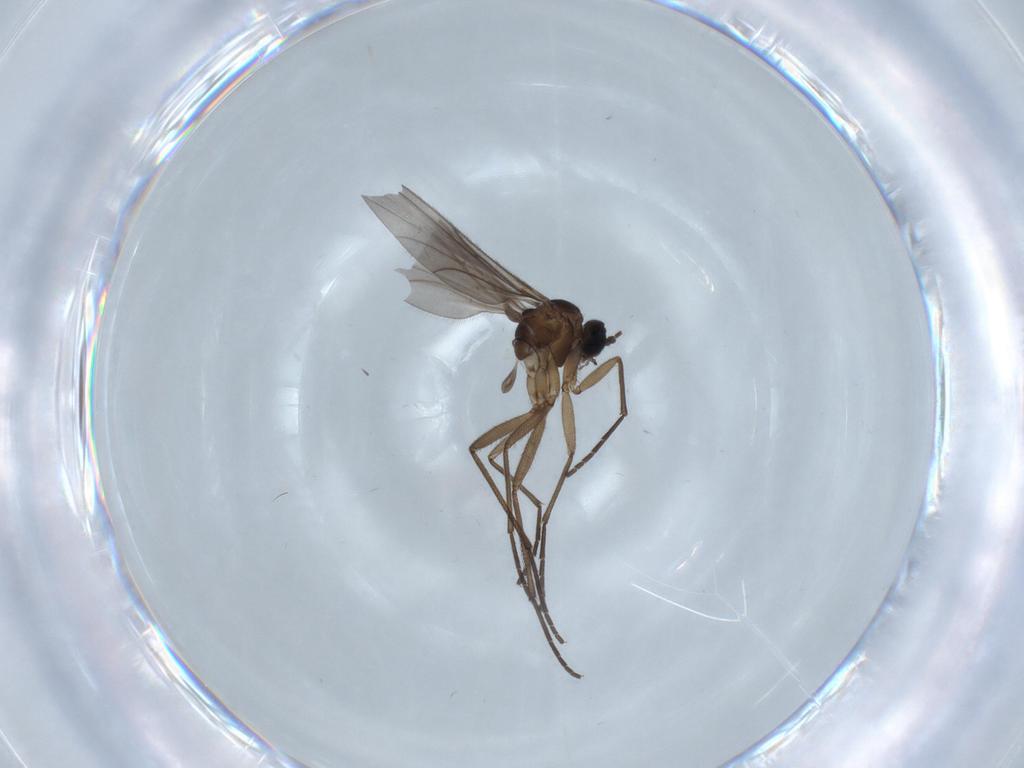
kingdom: Animalia
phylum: Arthropoda
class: Insecta
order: Diptera
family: Sciaridae
